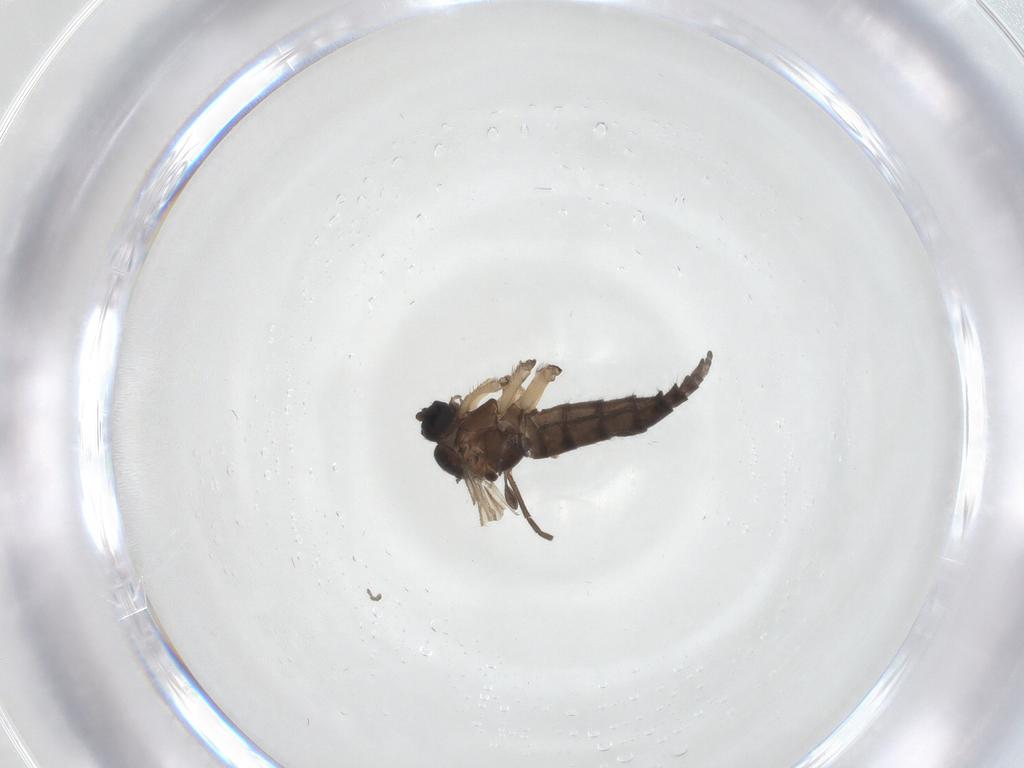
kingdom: Animalia
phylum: Arthropoda
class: Insecta
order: Diptera
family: Sciaridae
